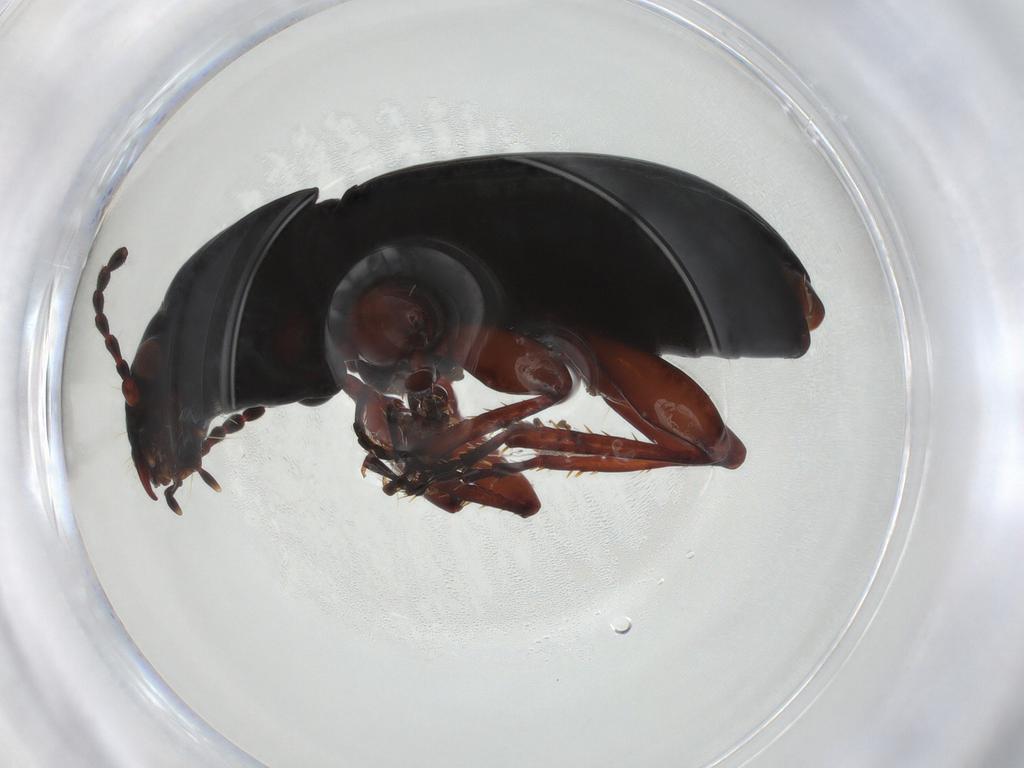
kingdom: Animalia
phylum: Arthropoda
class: Insecta
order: Coleoptera
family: Carabidae
